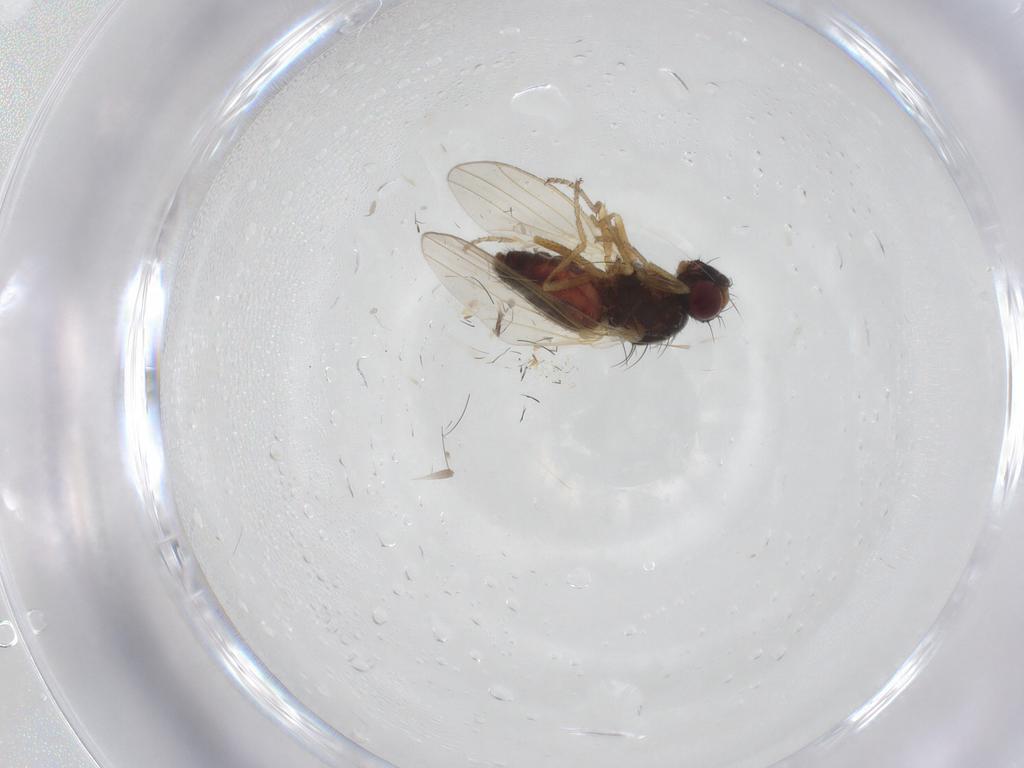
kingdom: Animalia
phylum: Arthropoda
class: Insecta
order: Diptera
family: Heleomyzidae
